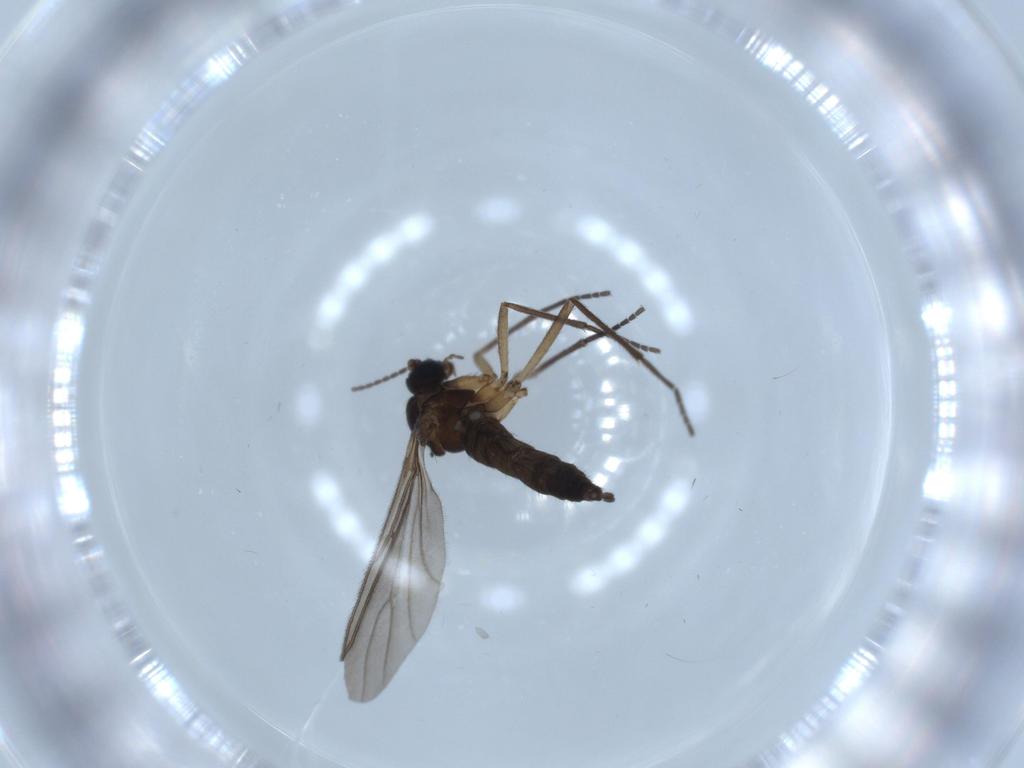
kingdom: Animalia
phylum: Arthropoda
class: Insecta
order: Diptera
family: Sciaridae
